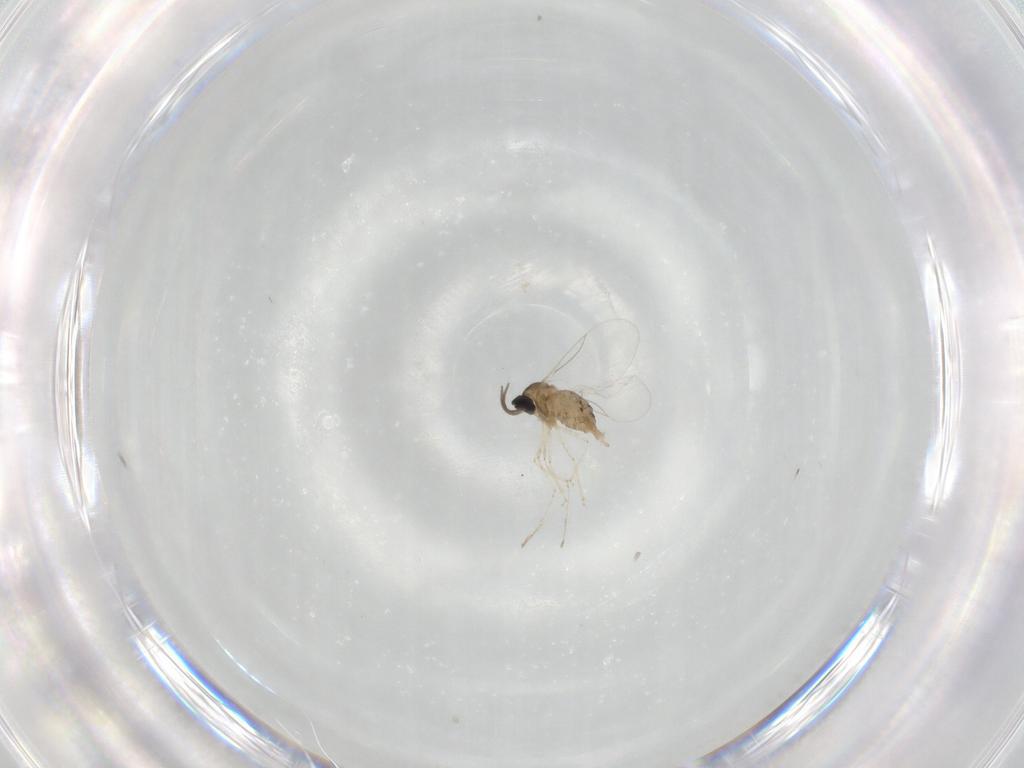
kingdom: Animalia
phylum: Arthropoda
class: Insecta
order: Diptera
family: Cecidomyiidae
